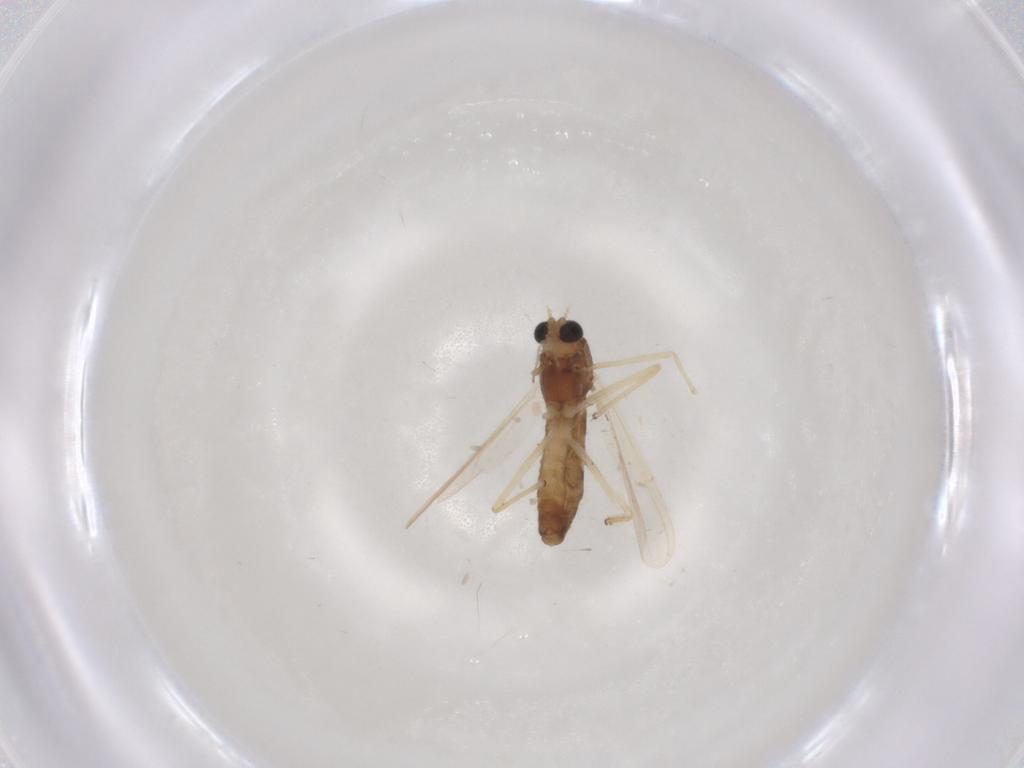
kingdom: Animalia
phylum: Arthropoda
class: Insecta
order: Diptera
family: Chironomidae
